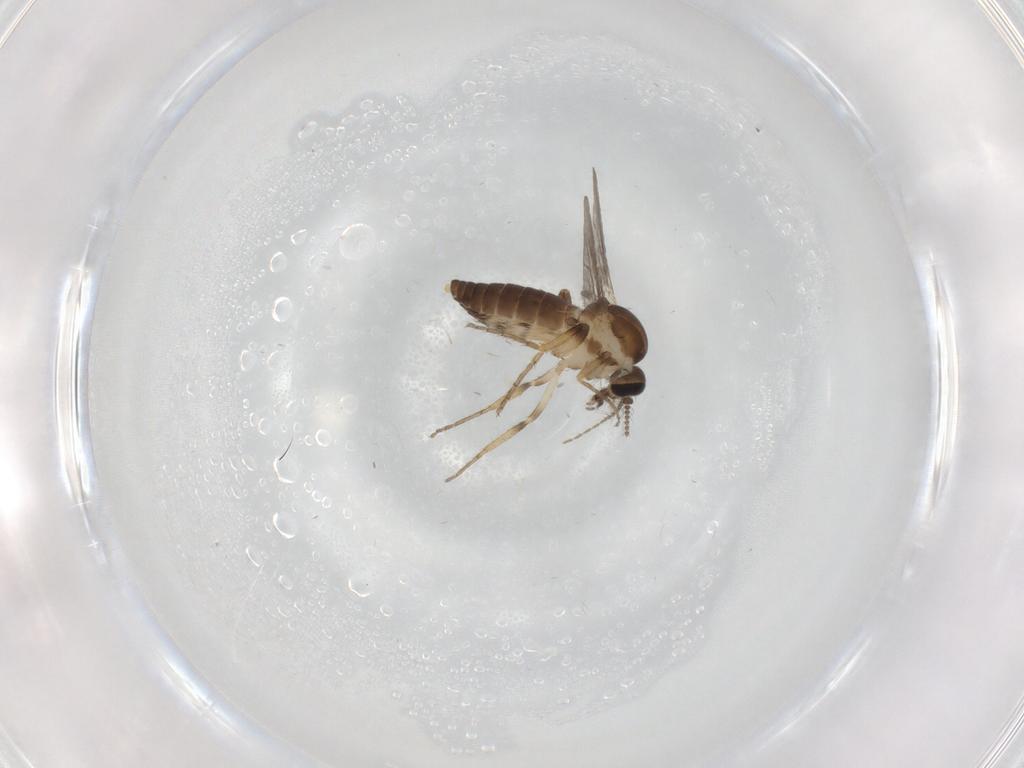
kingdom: Animalia
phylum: Arthropoda
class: Insecta
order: Diptera
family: Ceratopogonidae
